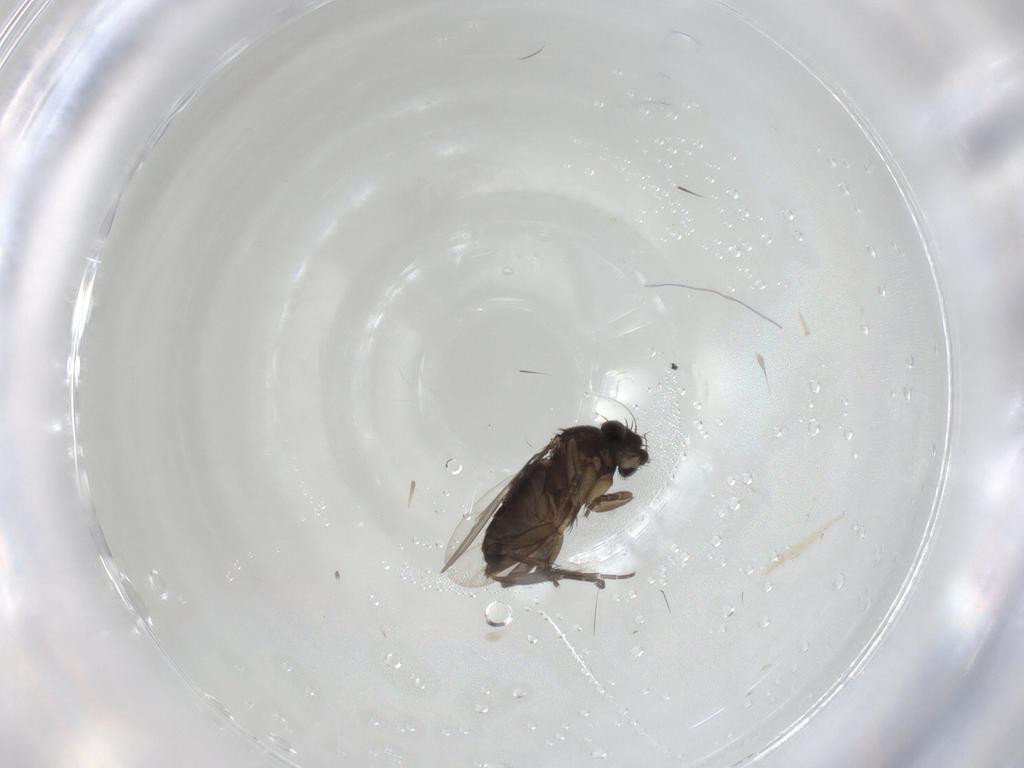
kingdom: Animalia
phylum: Arthropoda
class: Insecta
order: Diptera
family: Phoridae
